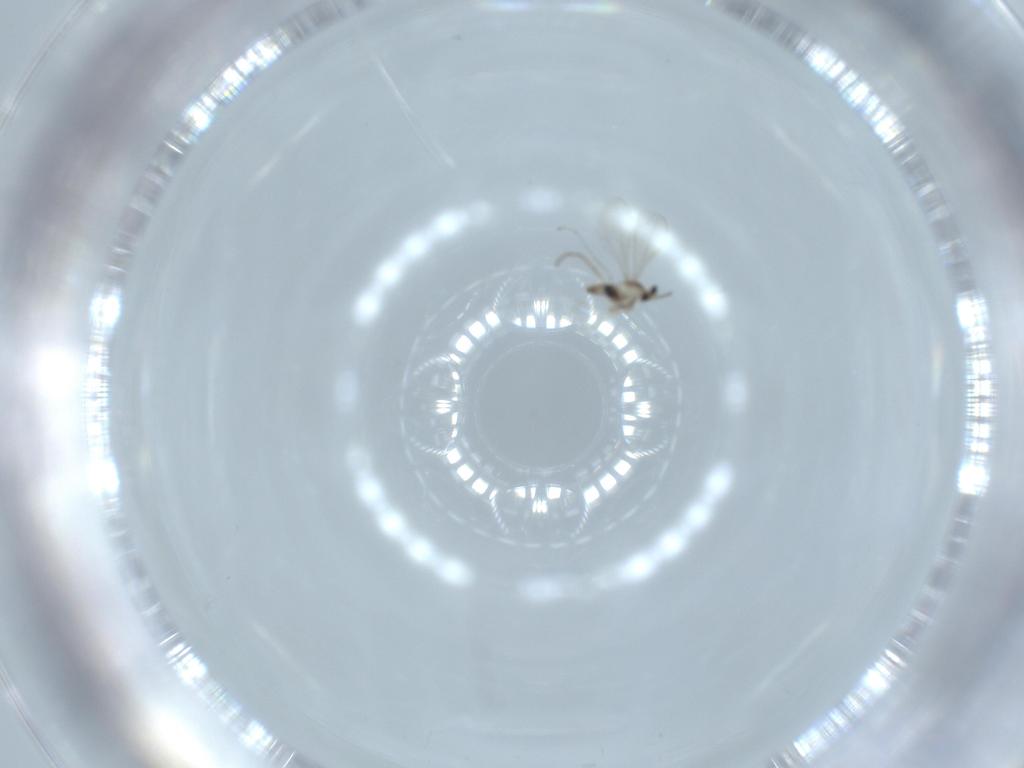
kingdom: Animalia
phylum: Arthropoda
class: Insecta
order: Diptera
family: Cecidomyiidae
